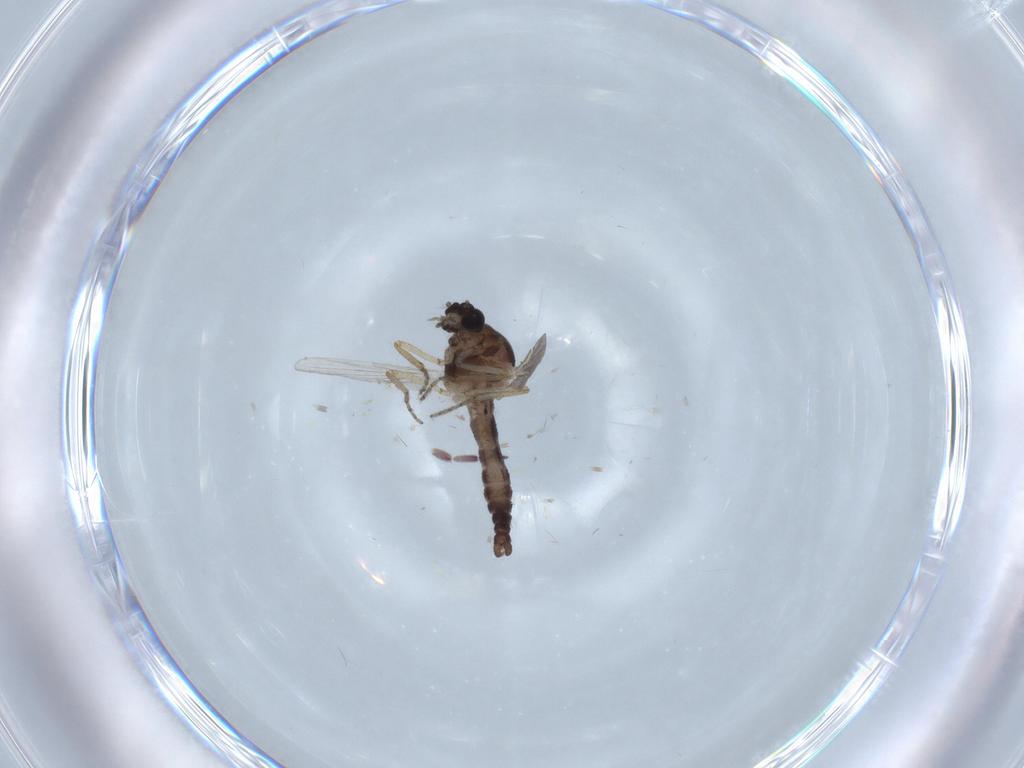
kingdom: Animalia
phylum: Arthropoda
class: Insecta
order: Diptera
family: Ceratopogonidae
